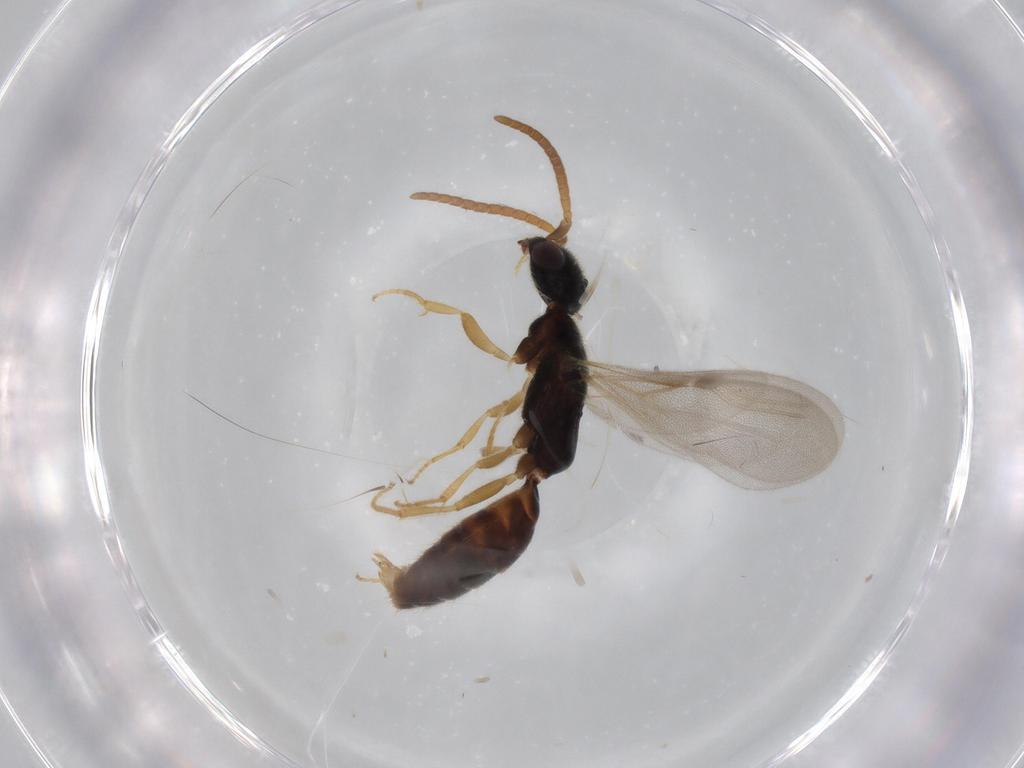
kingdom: Animalia
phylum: Arthropoda
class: Insecta
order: Hymenoptera
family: Bethylidae
